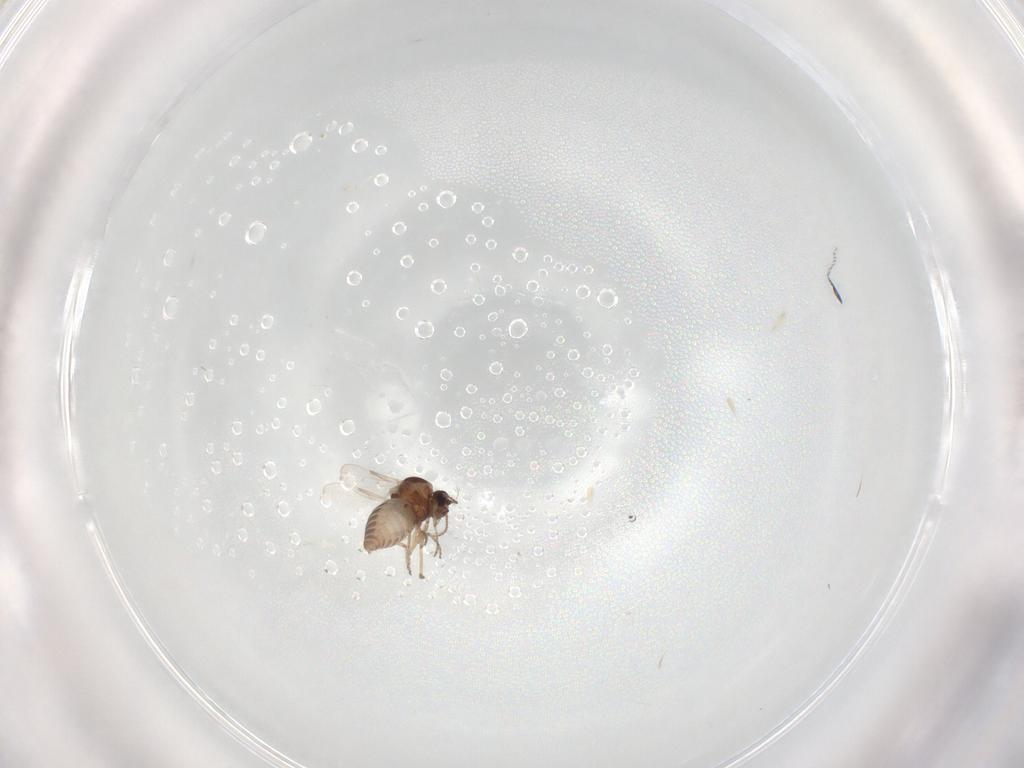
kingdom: Animalia
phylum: Arthropoda
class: Insecta
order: Diptera
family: Ceratopogonidae
